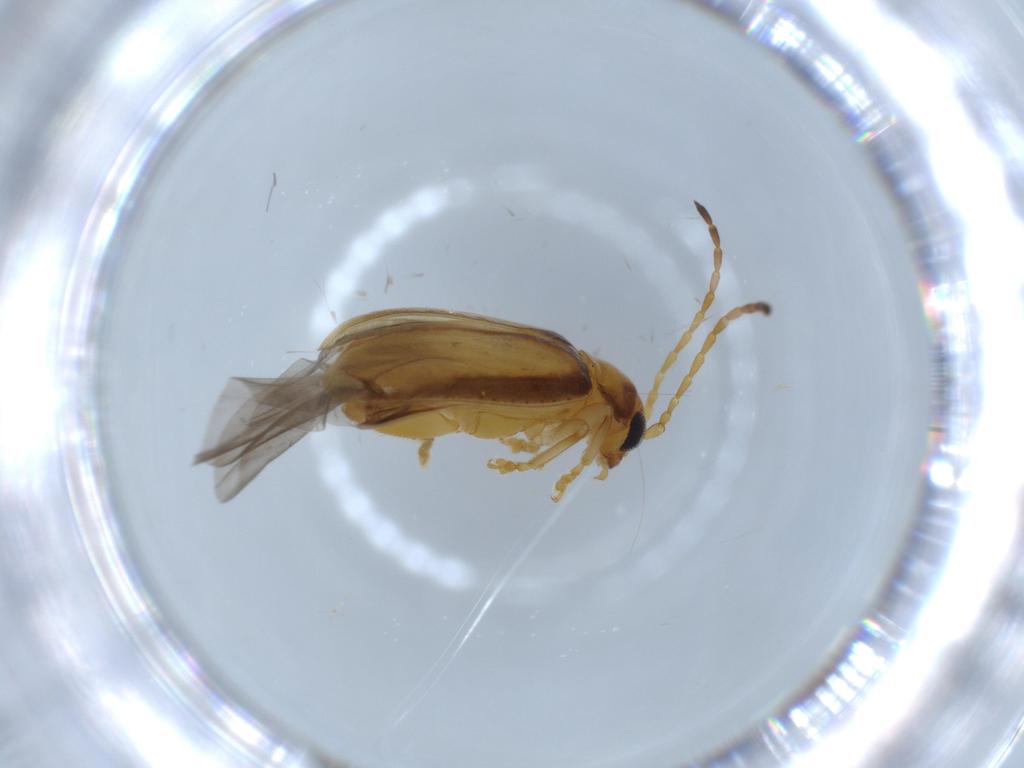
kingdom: Animalia
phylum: Arthropoda
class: Insecta
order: Coleoptera
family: Chrysomelidae
